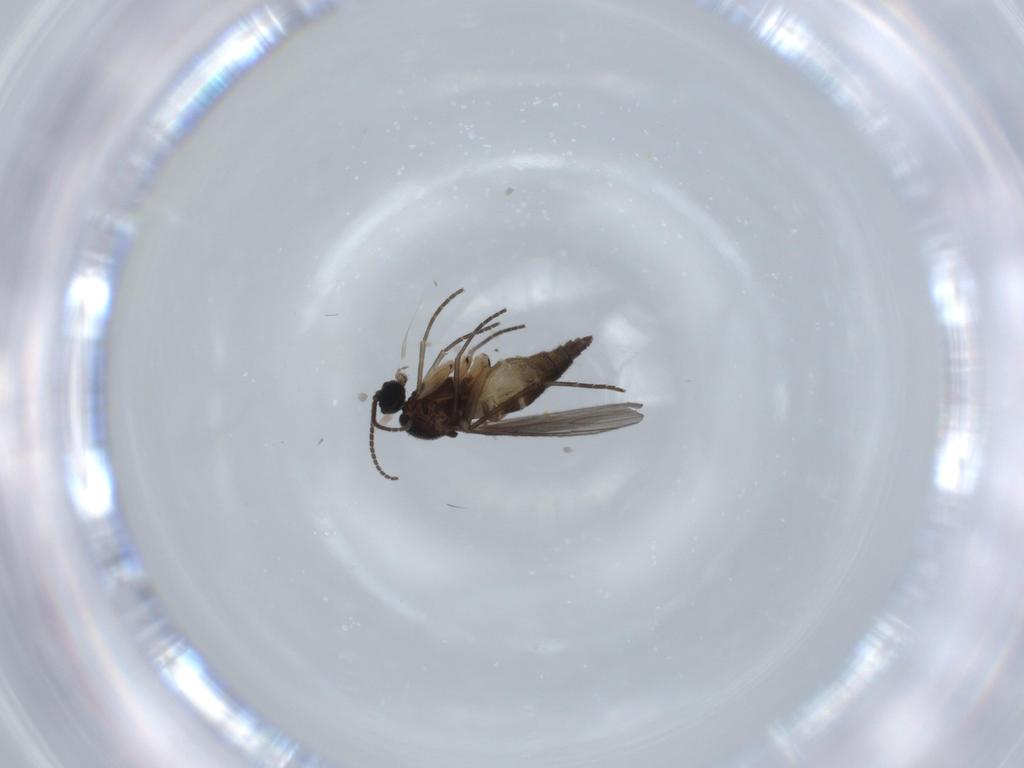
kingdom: Animalia
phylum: Arthropoda
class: Insecta
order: Diptera
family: Sciaridae
